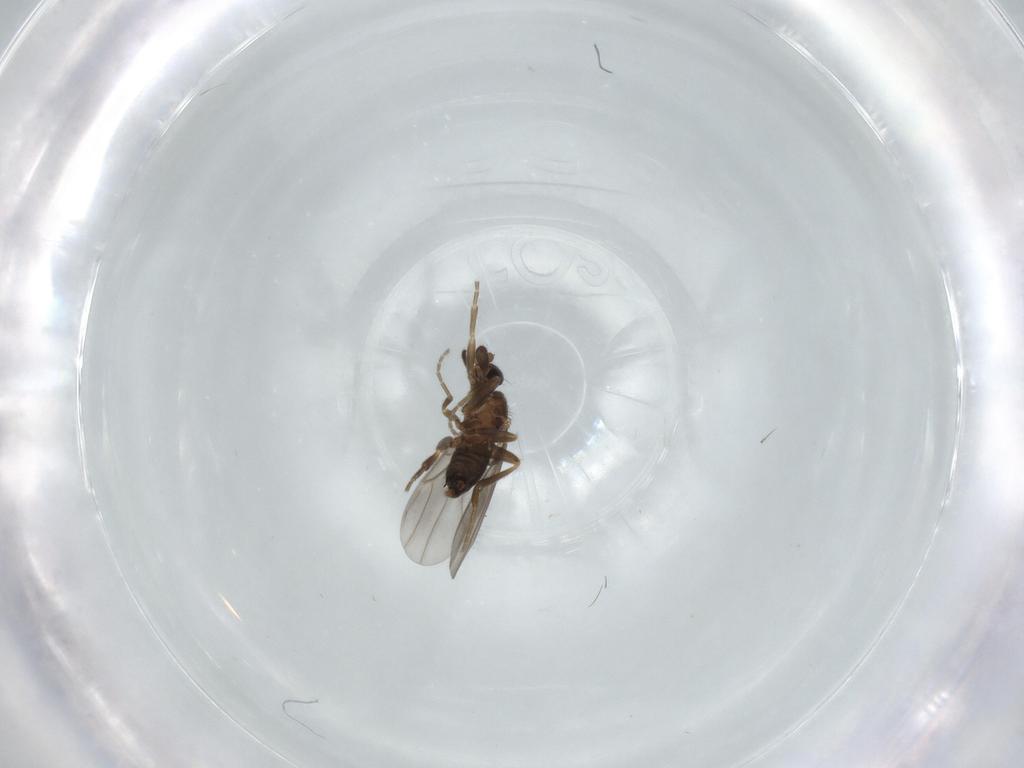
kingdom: Animalia
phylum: Arthropoda
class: Insecta
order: Diptera
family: Phoridae
